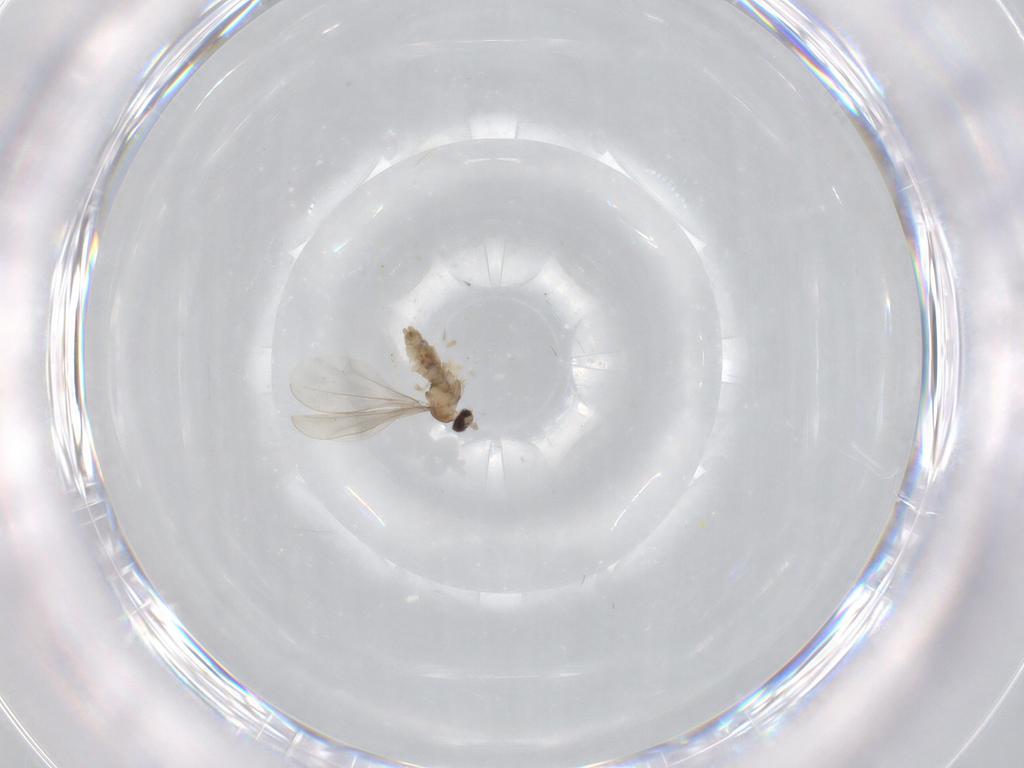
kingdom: Animalia
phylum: Arthropoda
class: Insecta
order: Diptera
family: Cecidomyiidae
